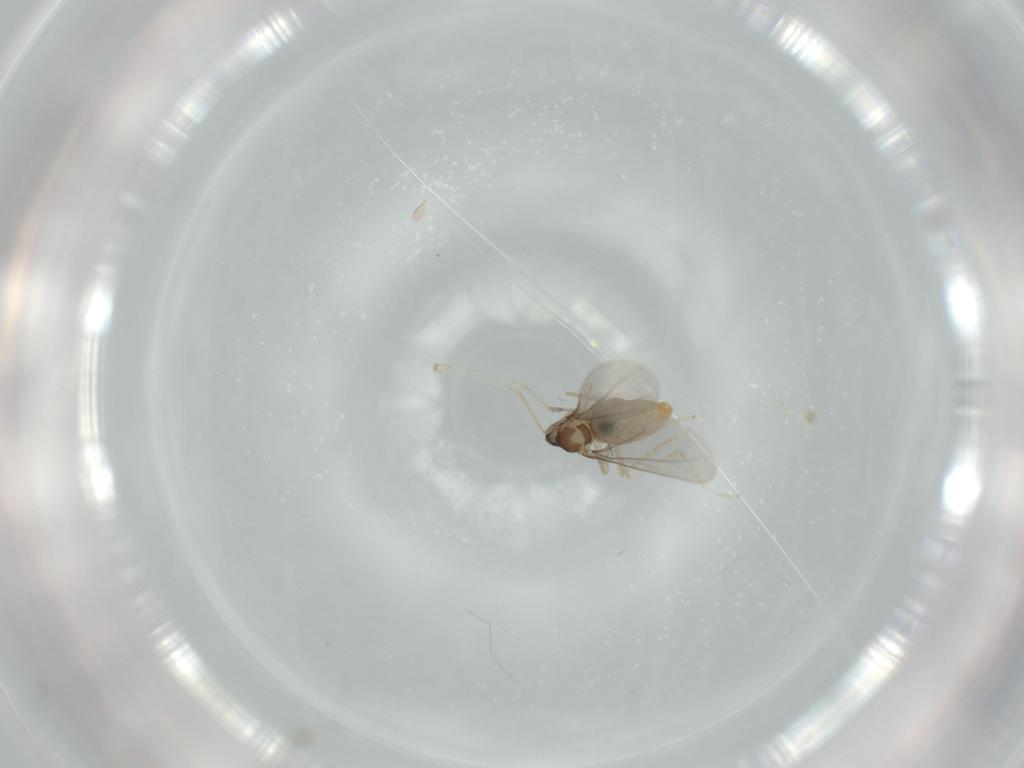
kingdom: Animalia
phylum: Arthropoda
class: Insecta
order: Diptera
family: Cecidomyiidae
